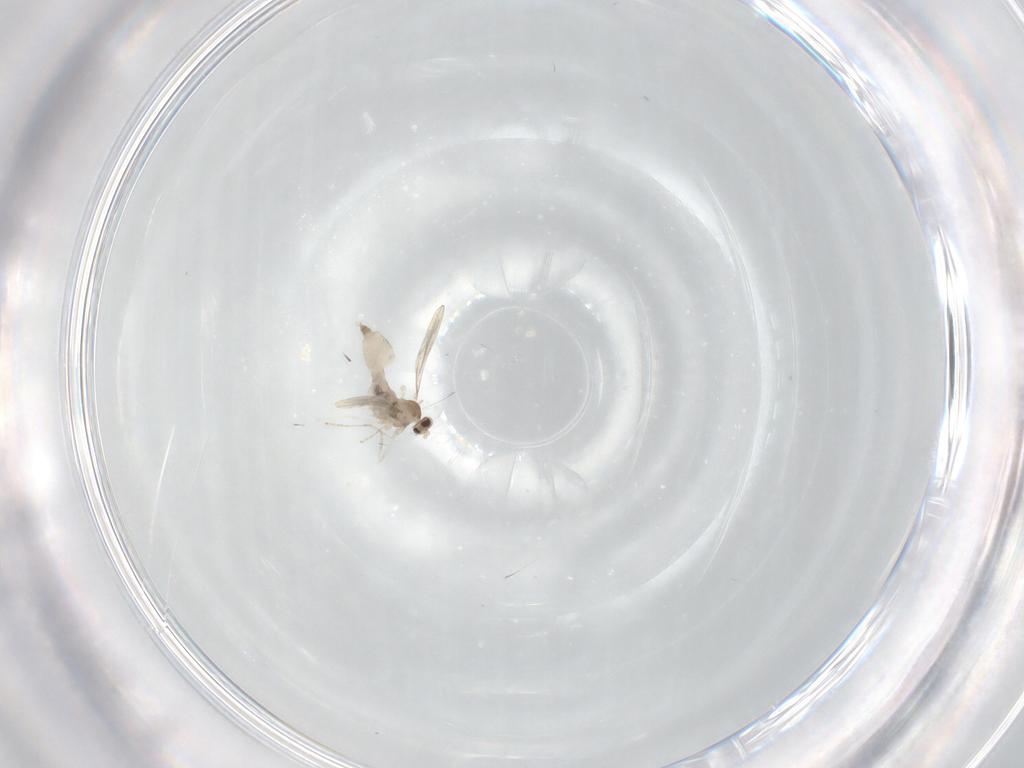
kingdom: Animalia
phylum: Arthropoda
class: Insecta
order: Diptera
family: Cecidomyiidae
